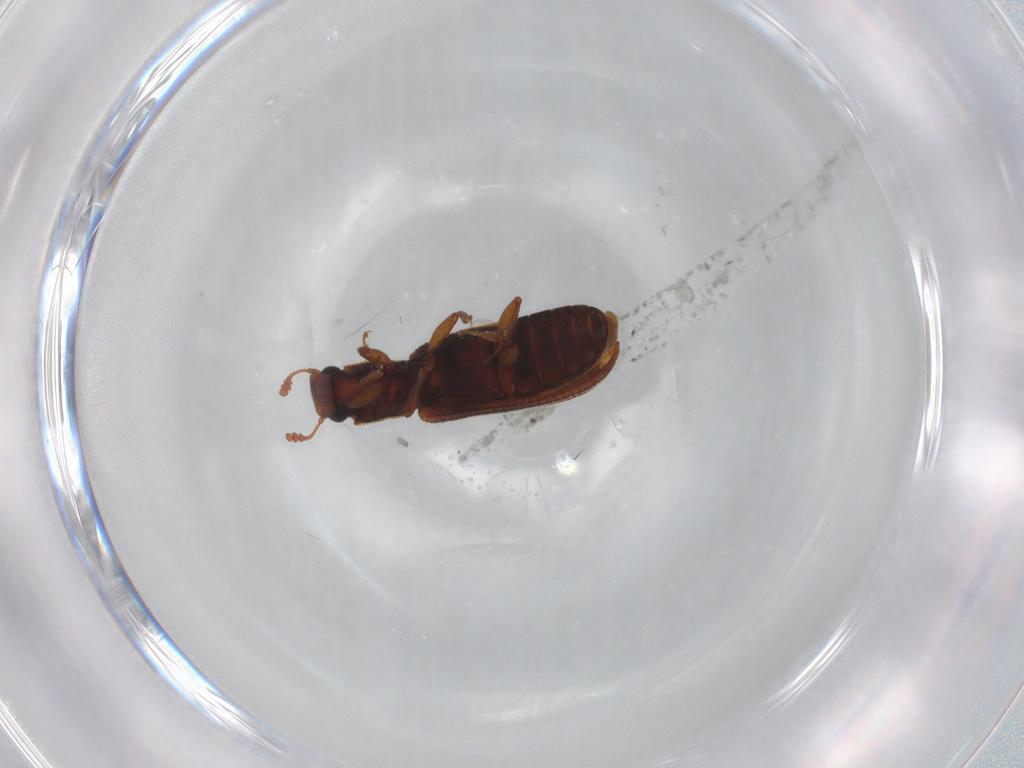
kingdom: Animalia
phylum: Arthropoda
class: Insecta
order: Coleoptera
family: Zopheridae
